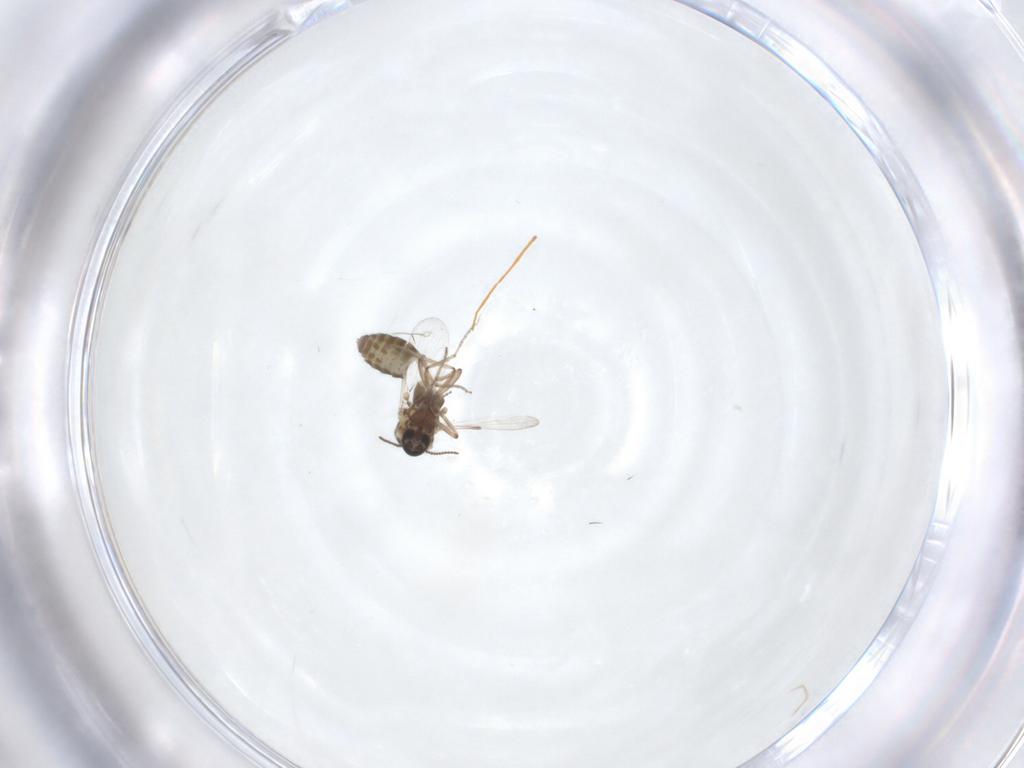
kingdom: Animalia
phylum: Arthropoda
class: Insecta
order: Diptera
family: Ceratopogonidae
